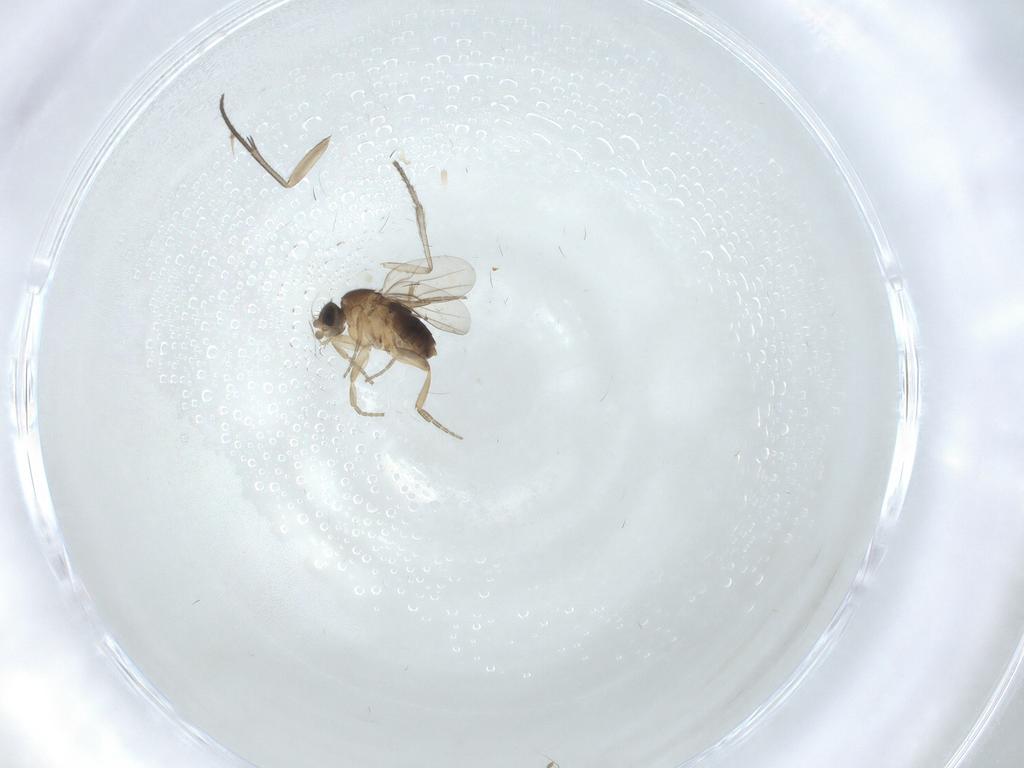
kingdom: Animalia
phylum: Arthropoda
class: Insecta
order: Diptera
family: Phoridae
